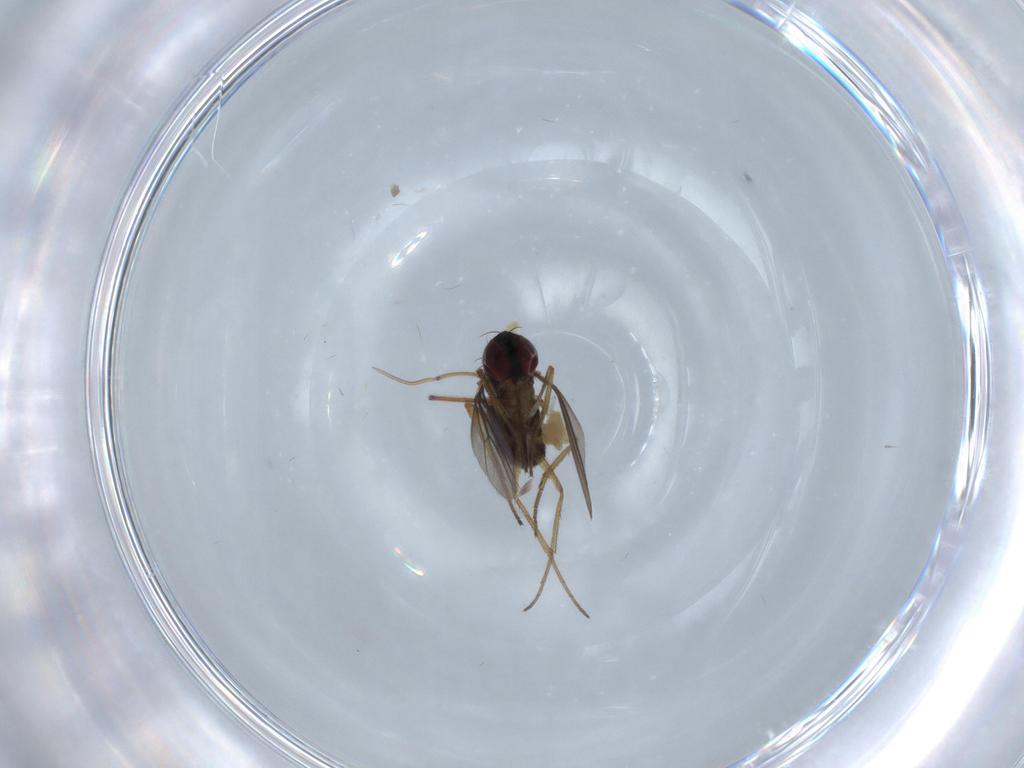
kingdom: Animalia
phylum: Arthropoda
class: Insecta
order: Diptera
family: Dolichopodidae
